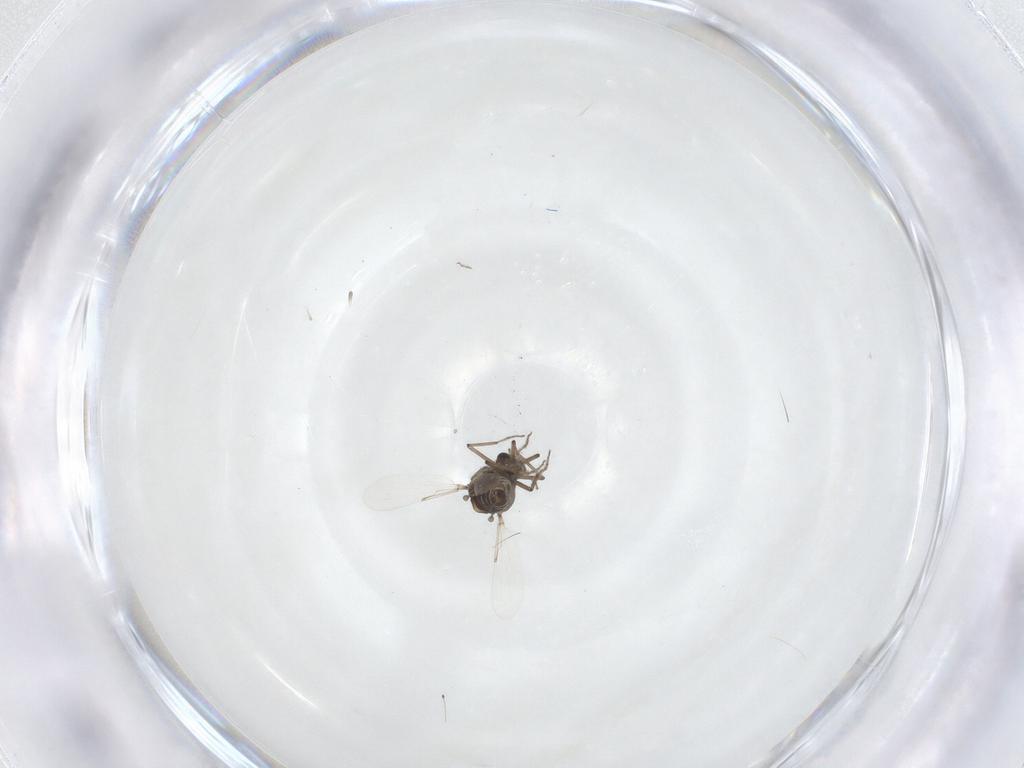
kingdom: Animalia
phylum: Arthropoda
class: Insecta
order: Diptera
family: Ceratopogonidae
